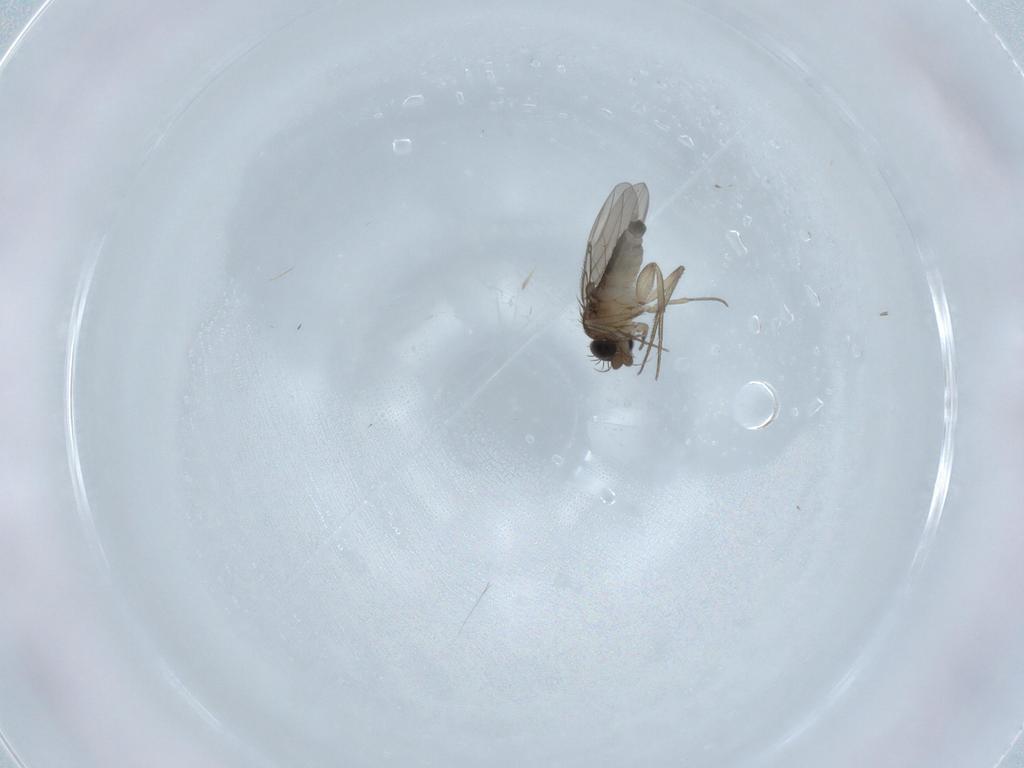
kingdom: Animalia
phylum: Arthropoda
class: Insecta
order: Diptera
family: Phoridae
